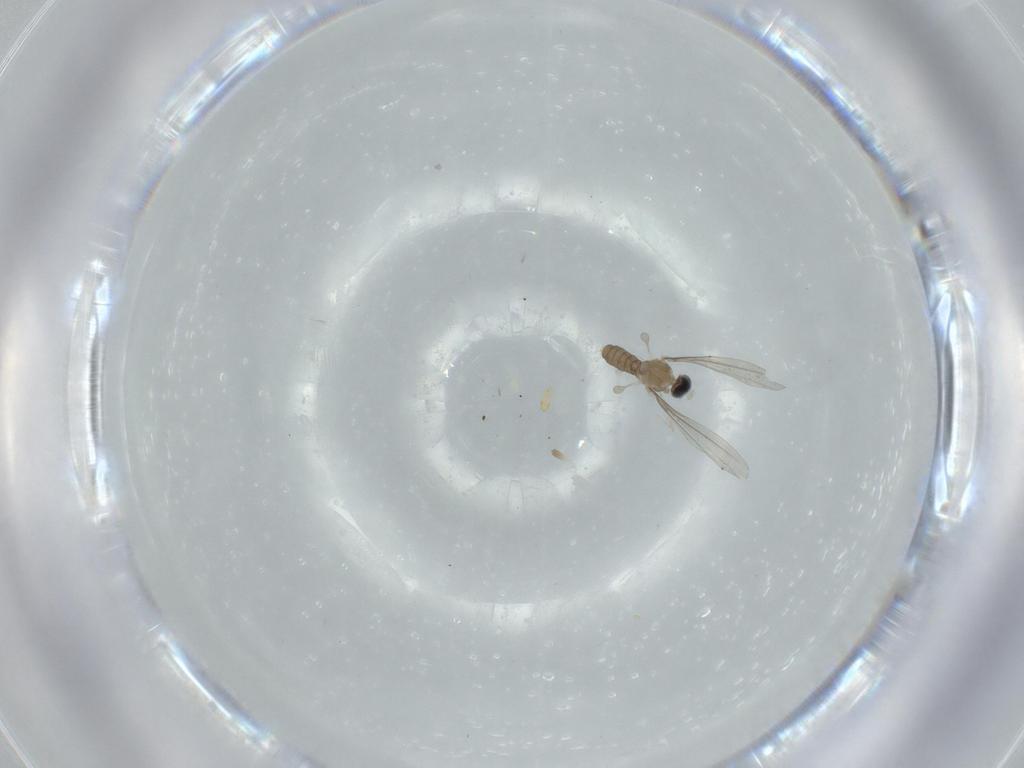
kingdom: Animalia
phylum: Arthropoda
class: Insecta
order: Diptera
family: Cecidomyiidae
